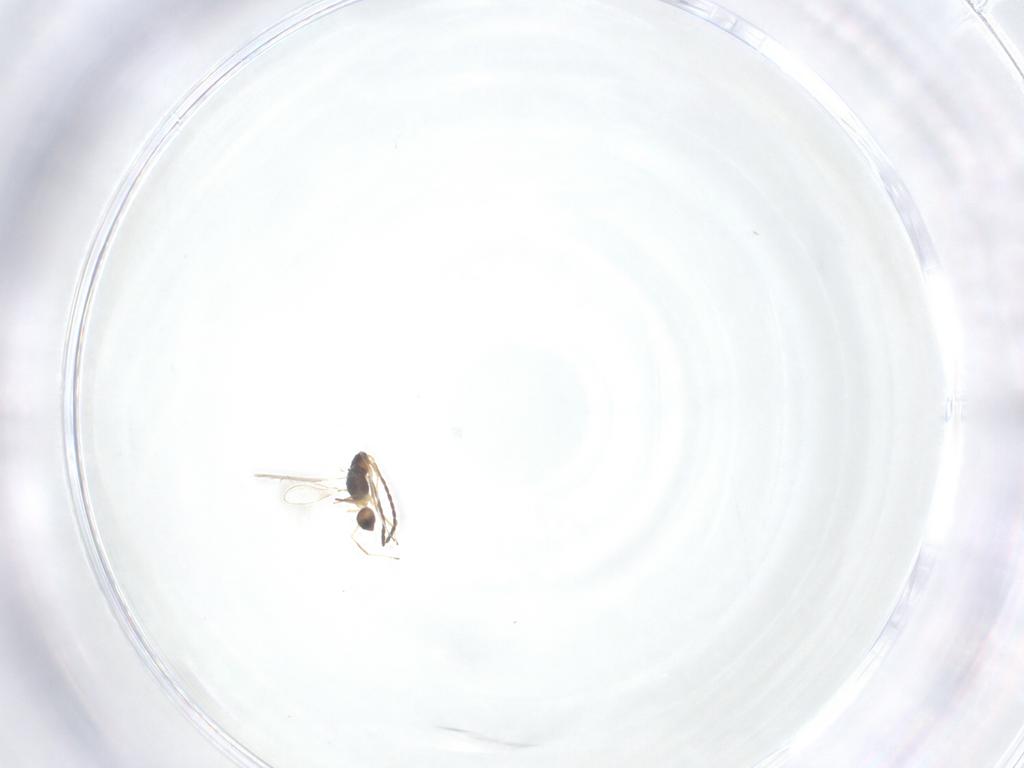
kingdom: Animalia
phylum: Arthropoda
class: Insecta
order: Hymenoptera
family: Mymaridae
